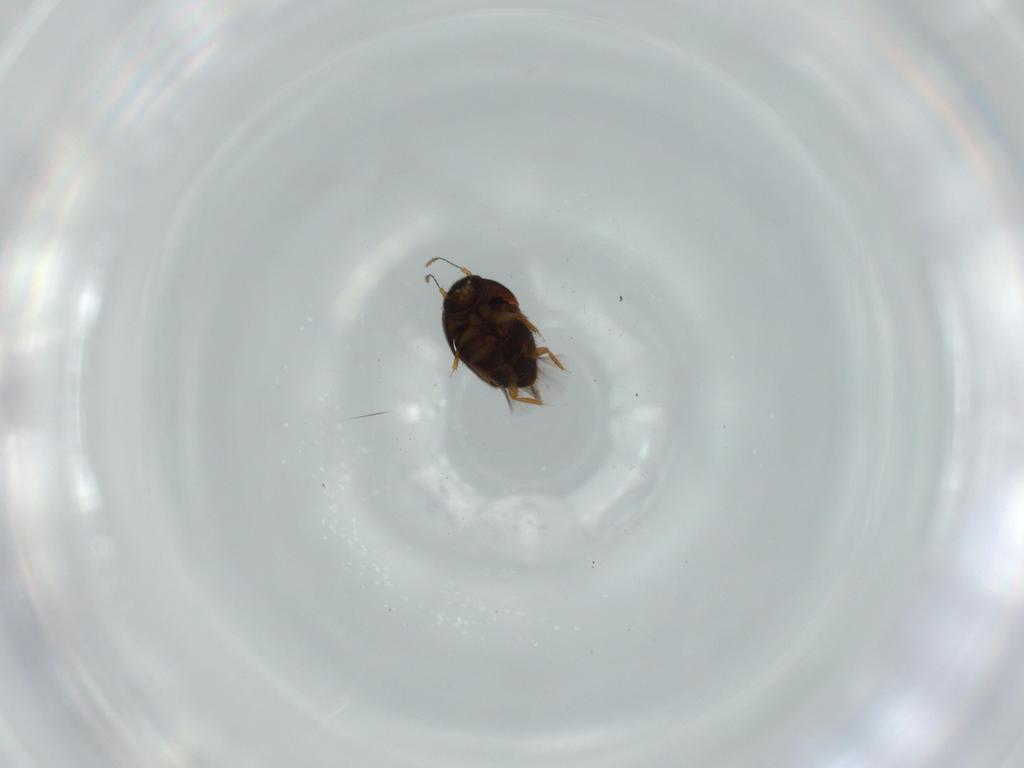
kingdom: Animalia
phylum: Arthropoda
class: Insecta
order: Coleoptera
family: Ptiliidae
